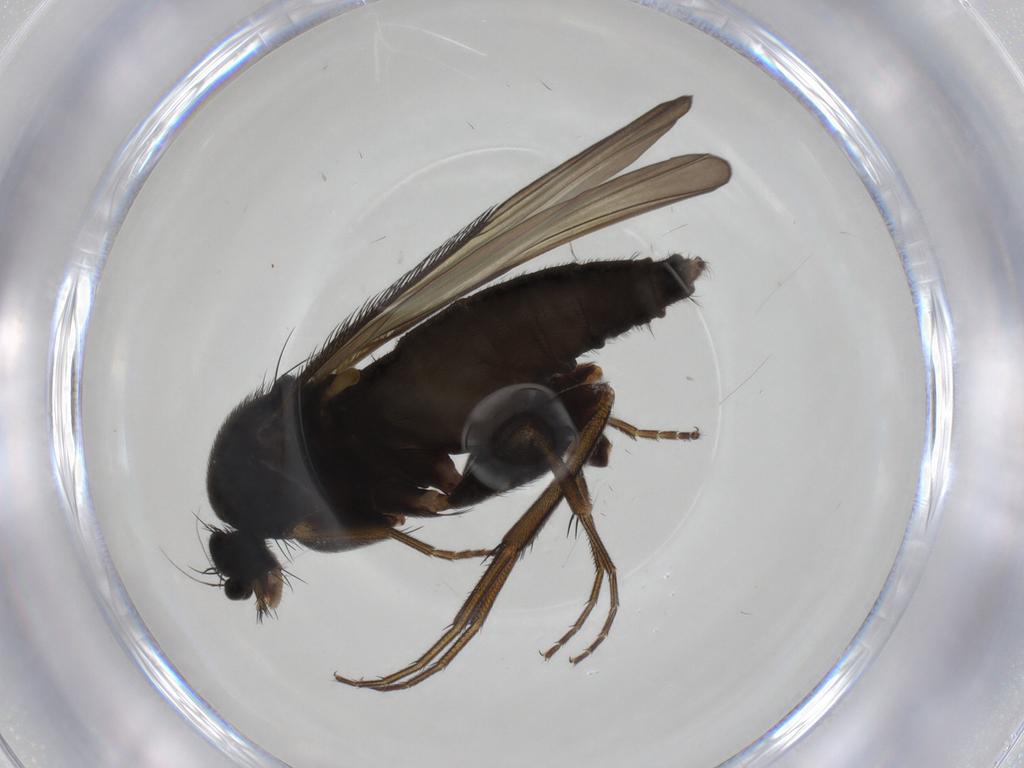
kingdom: Animalia
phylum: Arthropoda
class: Insecta
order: Diptera
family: Phoridae
